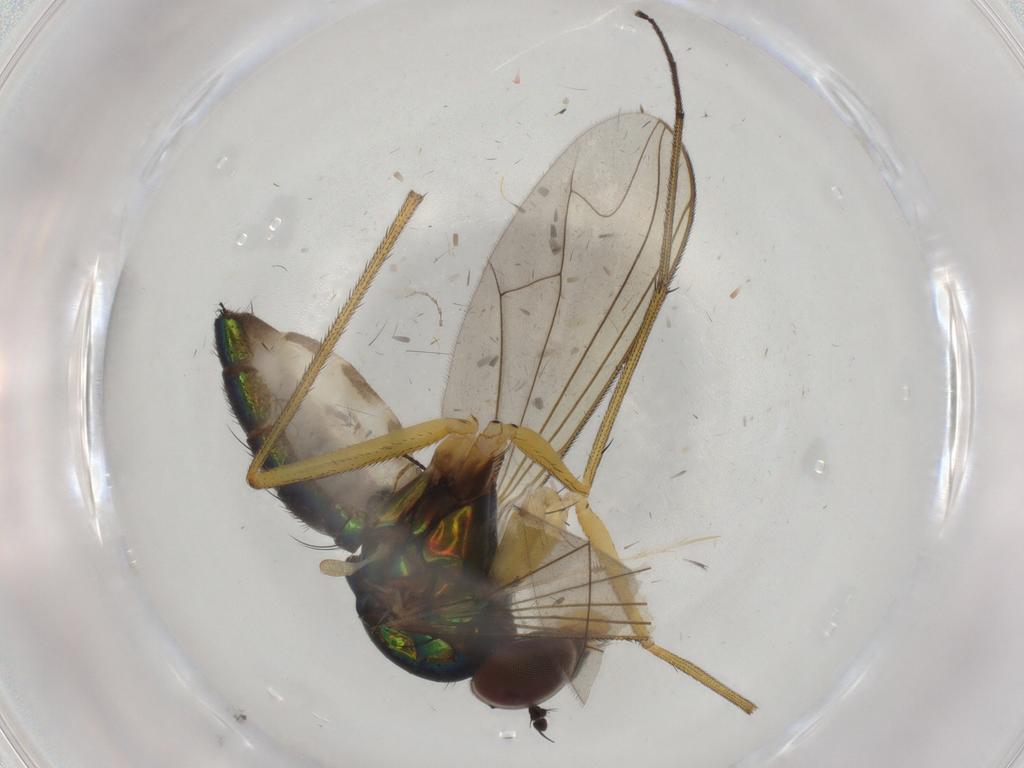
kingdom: Animalia
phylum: Arthropoda
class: Insecta
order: Diptera
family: Dolichopodidae
